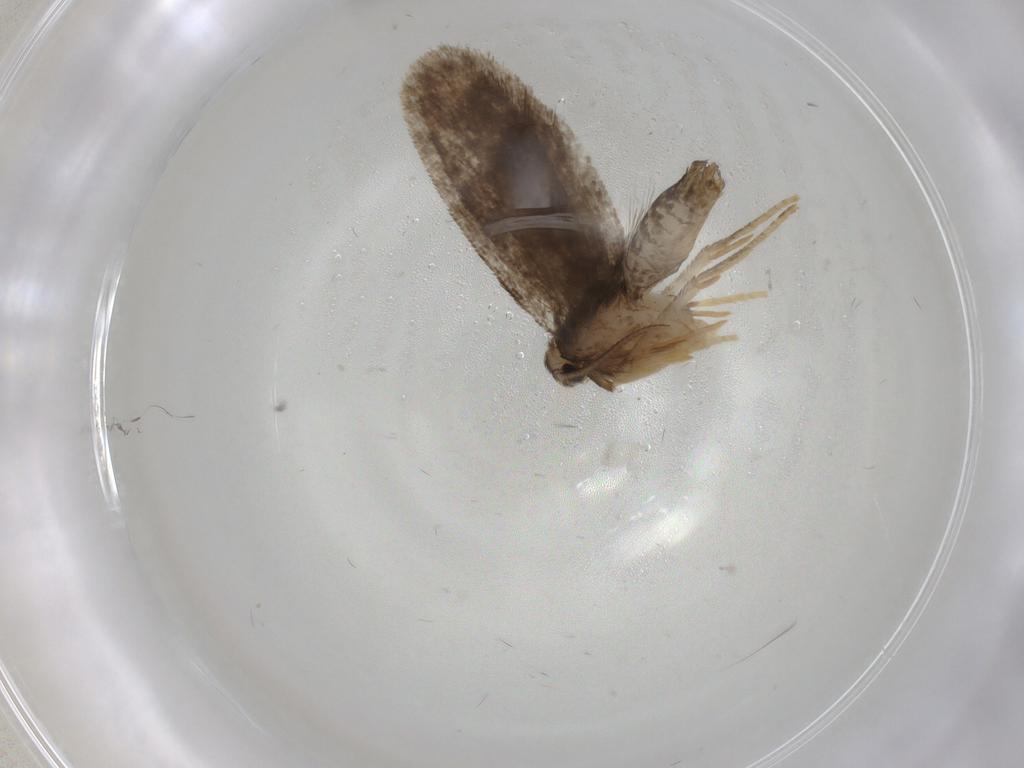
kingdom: Animalia
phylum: Arthropoda
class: Insecta
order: Lepidoptera
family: Psychidae
